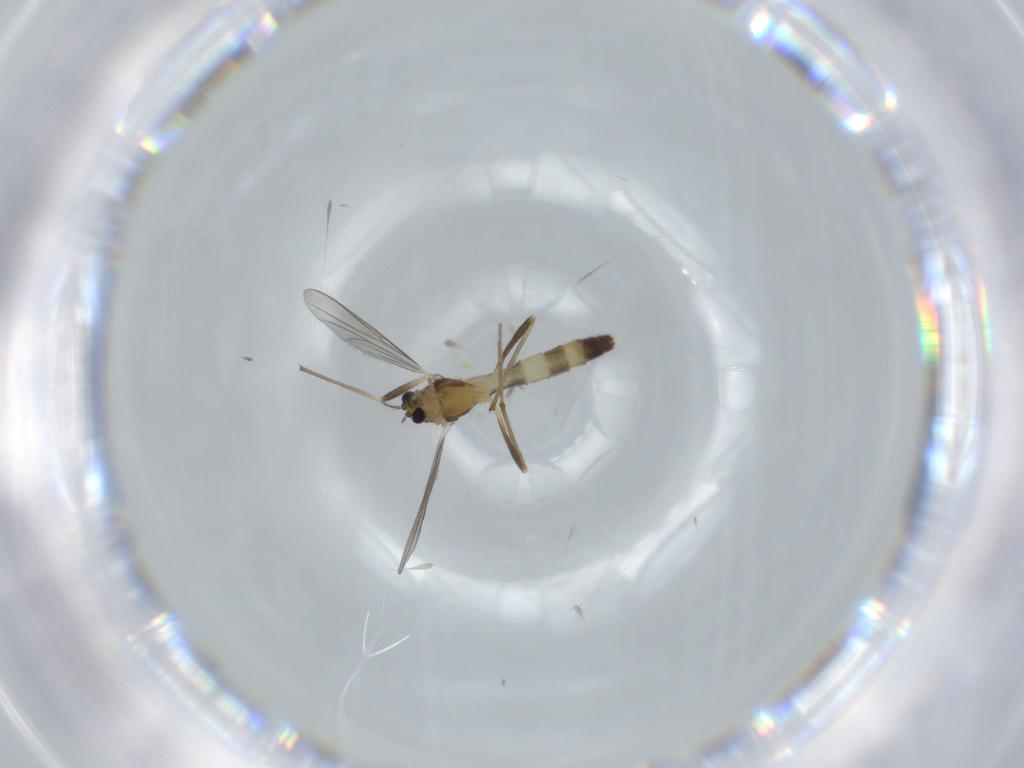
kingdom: Animalia
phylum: Arthropoda
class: Insecta
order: Diptera
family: Chironomidae
